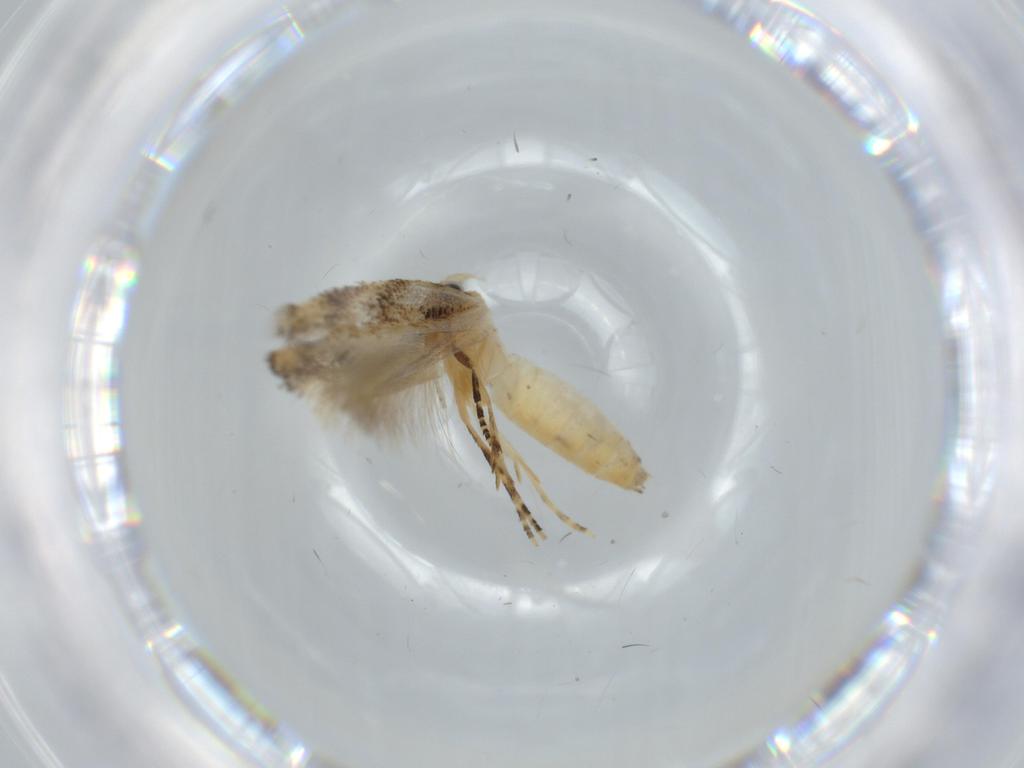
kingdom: Animalia
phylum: Arthropoda
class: Insecta
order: Lepidoptera
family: Bucculatricidae
